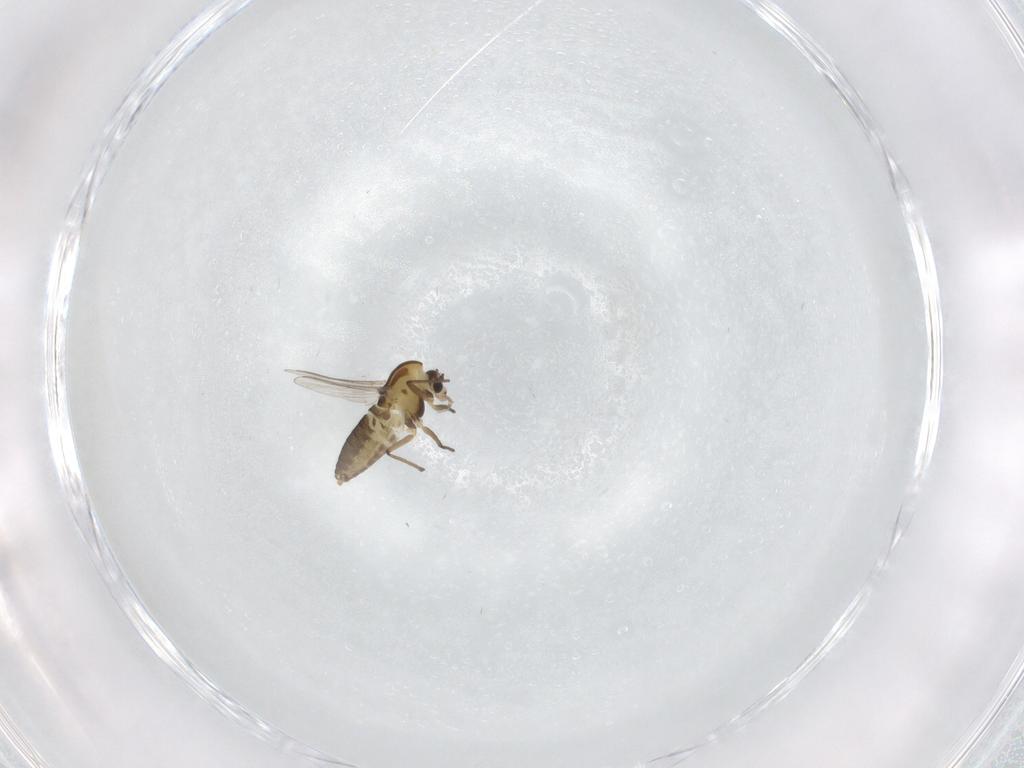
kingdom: Animalia
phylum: Arthropoda
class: Insecta
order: Diptera
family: Chironomidae
